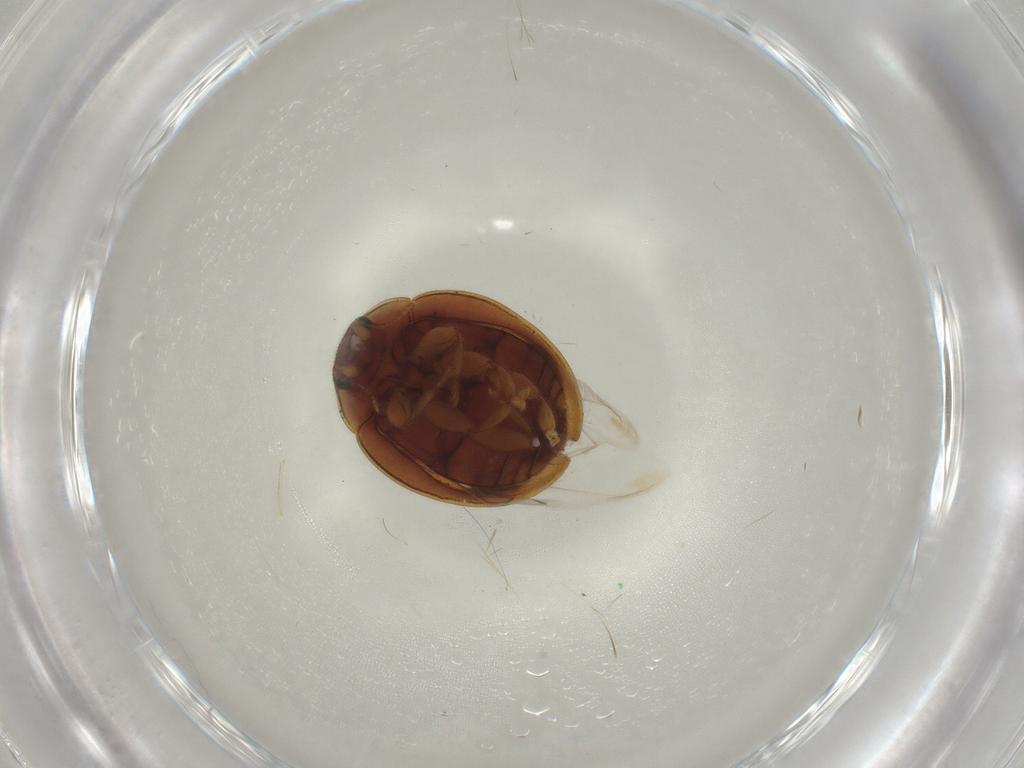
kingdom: Animalia
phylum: Arthropoda
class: Insecta
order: Coleoptera
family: Coccinellidae
